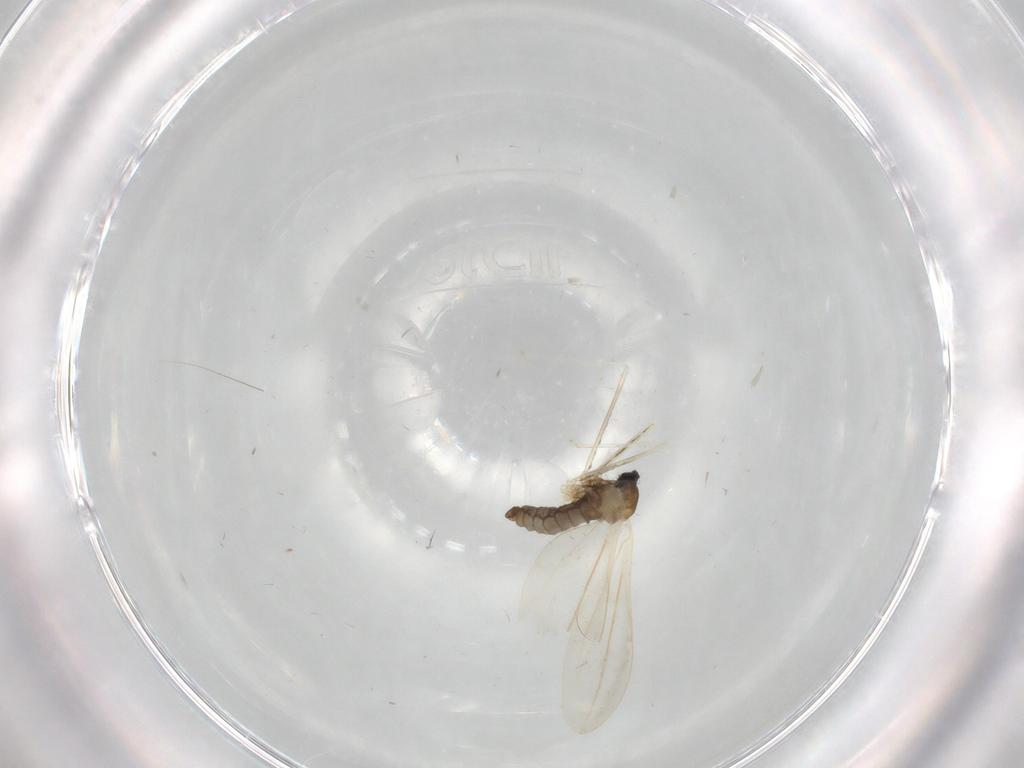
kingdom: Animalia
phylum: Arthropoda
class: Insecta
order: Diptera
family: Cecidomyiidae
